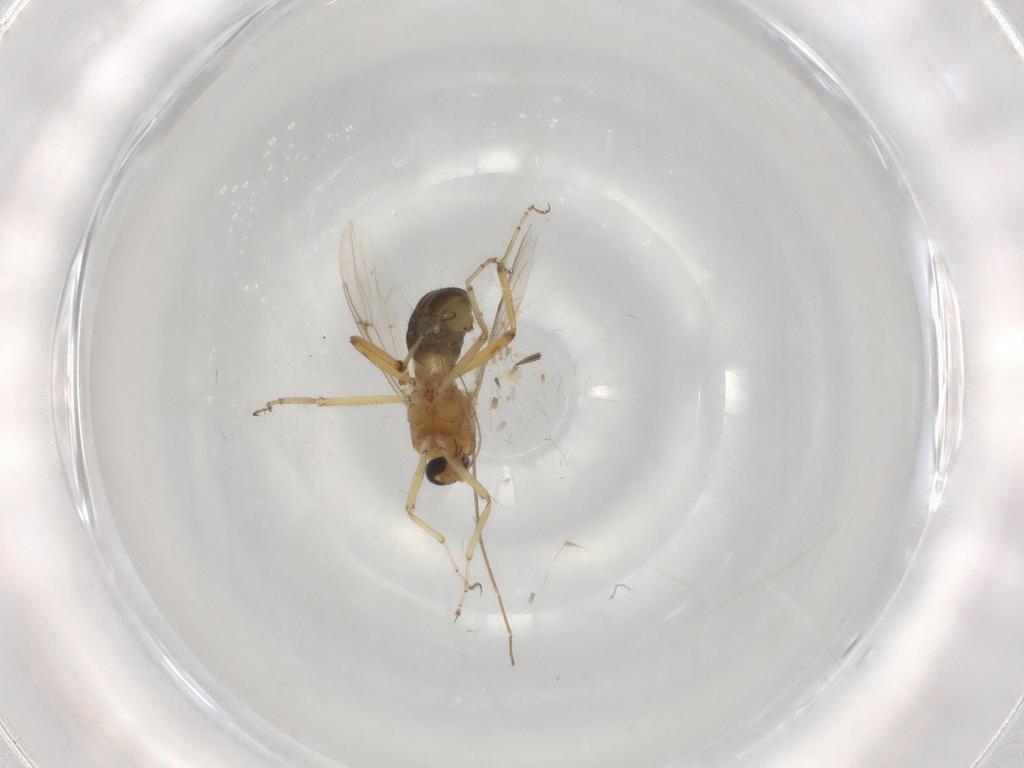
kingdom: Animalia
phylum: Arthropoda
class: Insecta
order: Diptera
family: Ceratopogonidae
